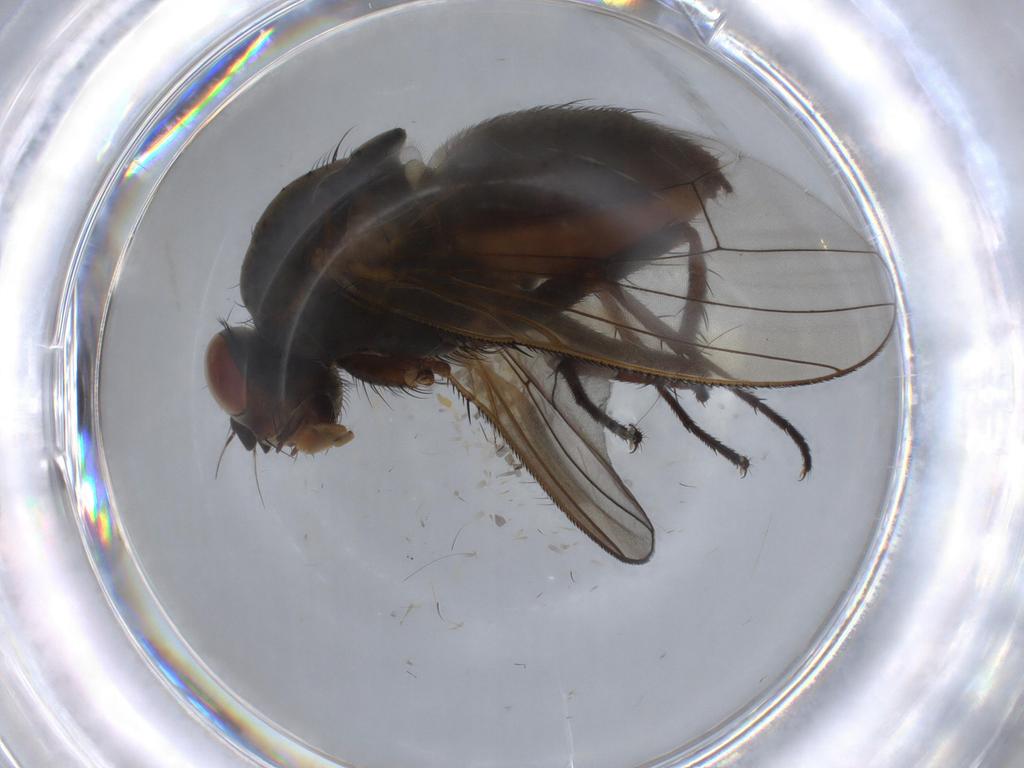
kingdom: Animalia
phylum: Arthropoda
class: Insecta
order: Diptera
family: Anthomyiidae
